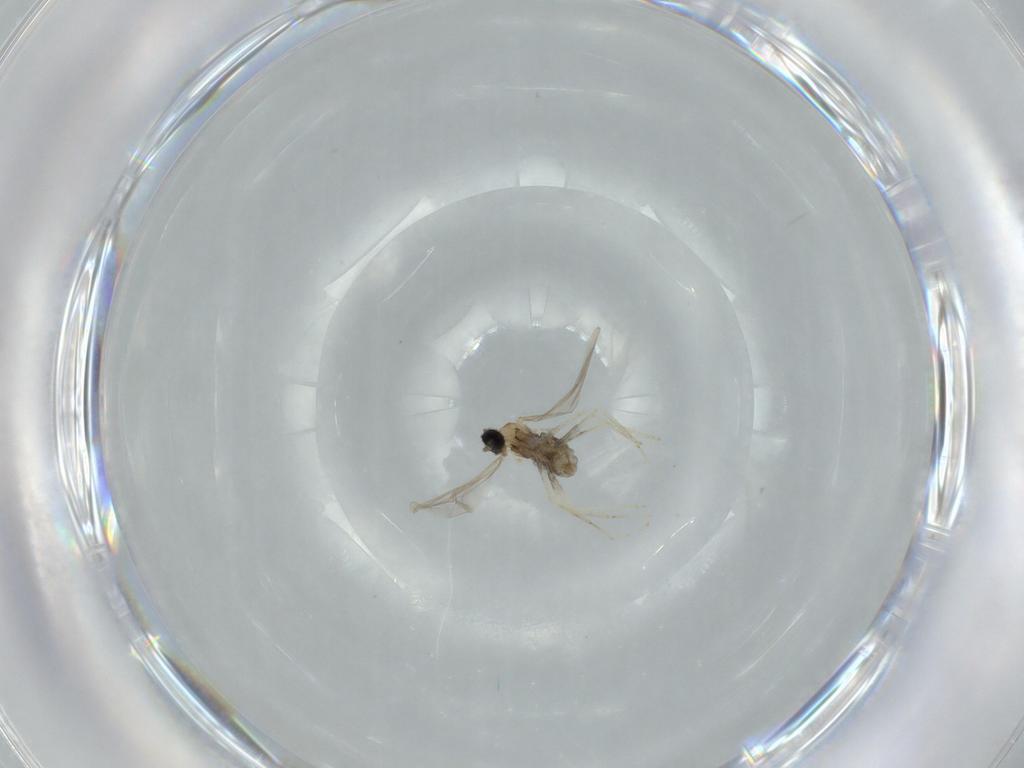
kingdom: Animalia
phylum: Arthropoda
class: Insecta
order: Diptera
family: Cecidomyiidae
